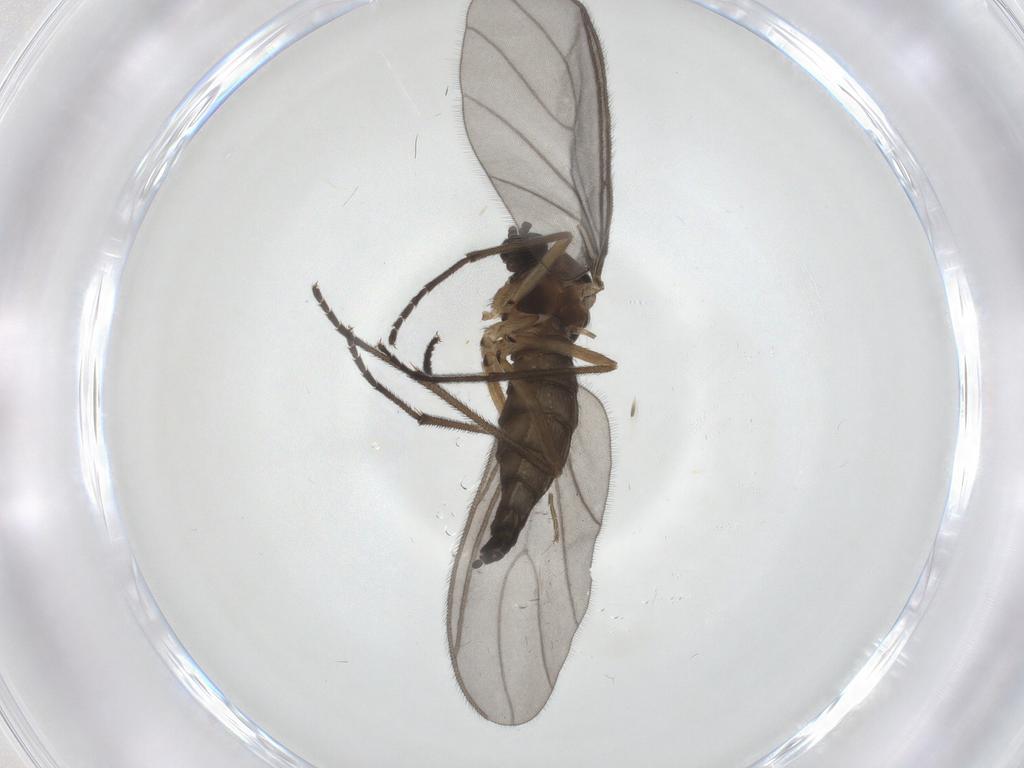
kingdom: Animalia
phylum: Arthropoda
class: Insecta
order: Diptera
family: Sciaridae
